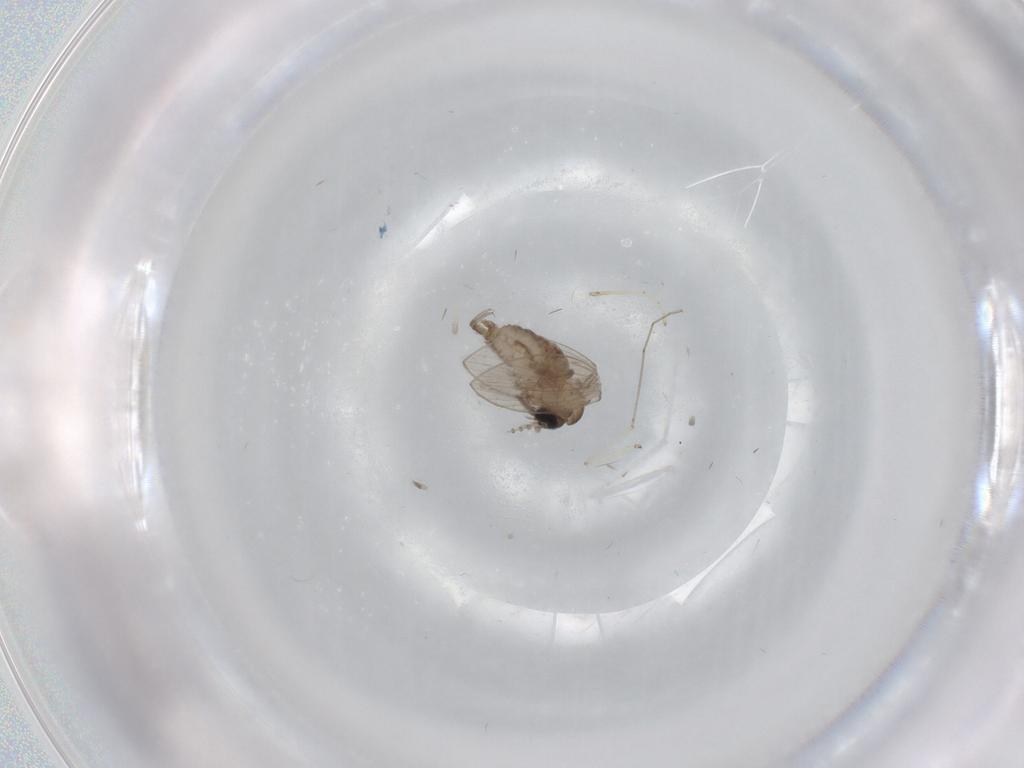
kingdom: Animalia
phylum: Arthropoda
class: Insecta
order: Diptera
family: Psychodidae
